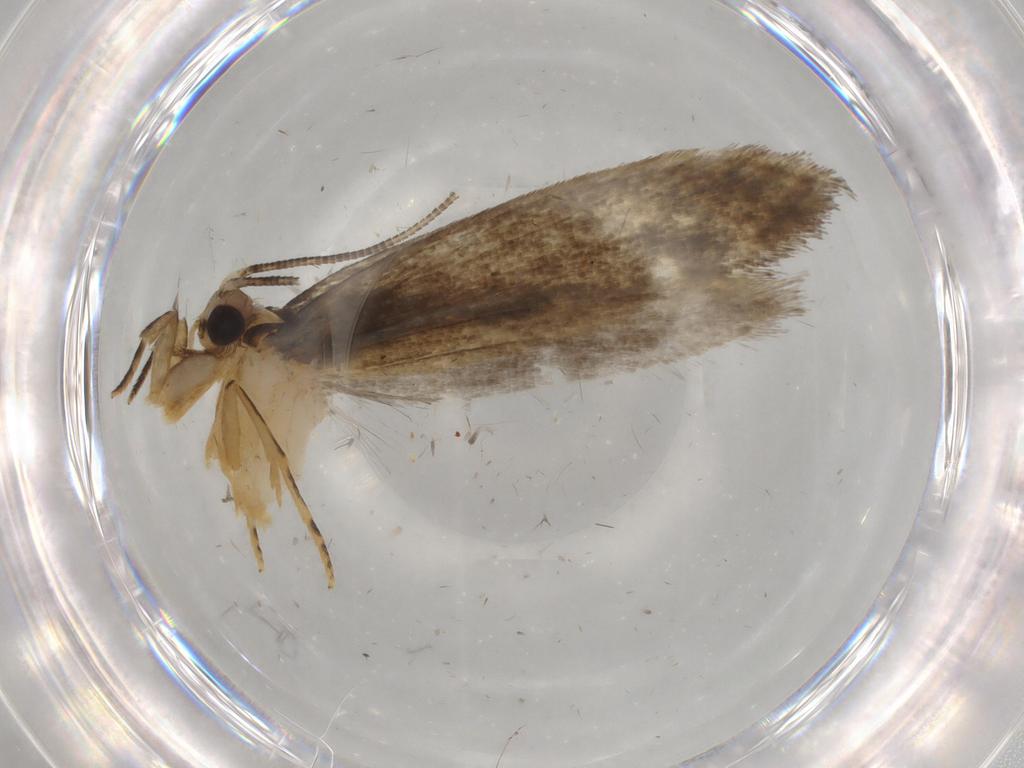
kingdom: Animalia
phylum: Arthropoda
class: Insecta
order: Lepidoptera
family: Tineidae
